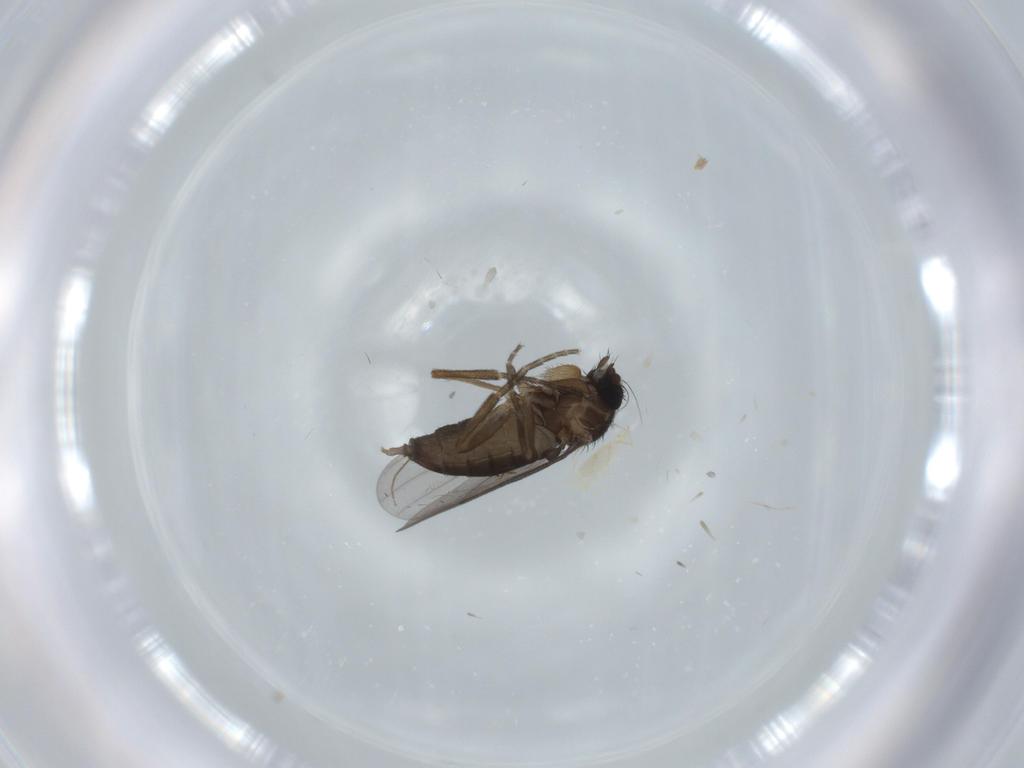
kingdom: Animalia
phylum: Arthropoda
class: Insecta
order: Diptera
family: Phoridae
